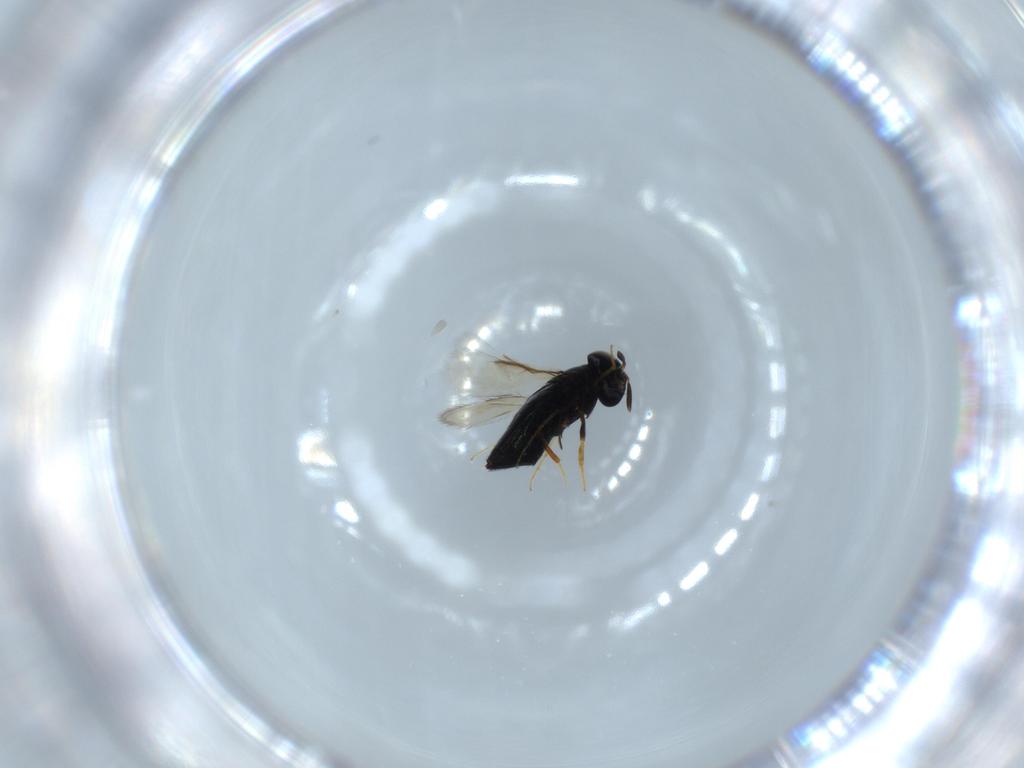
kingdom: Animalia
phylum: Arthropoda
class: Insecta
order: Hymenoptera
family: Signiphoridae
